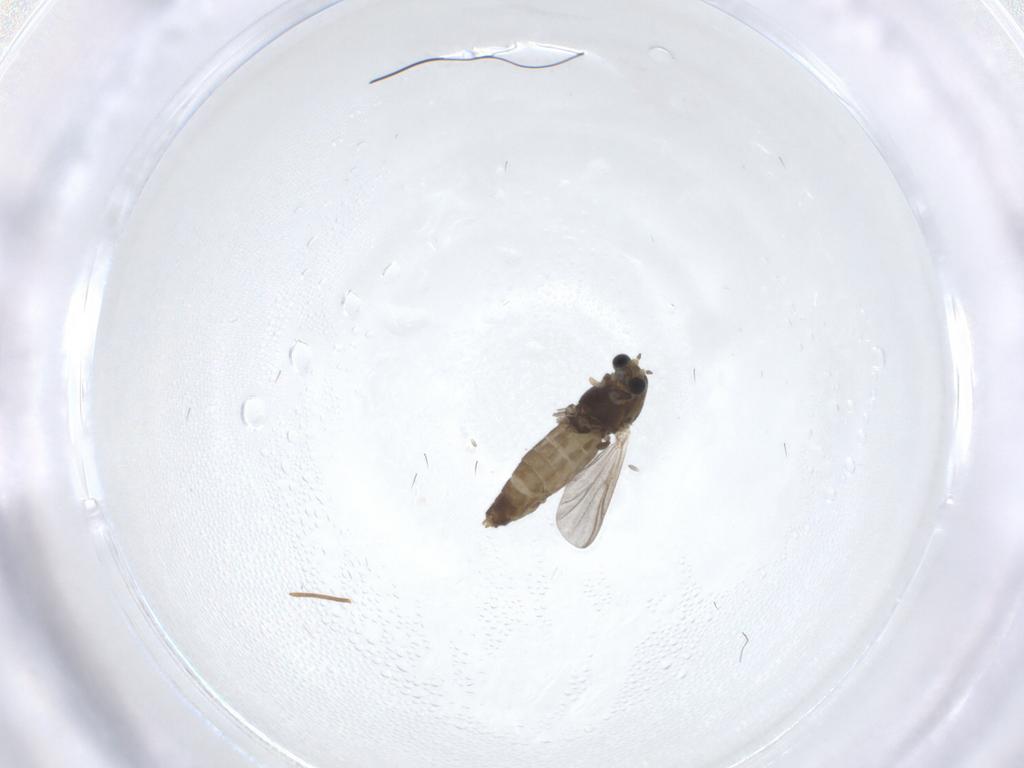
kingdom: Animalia
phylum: Arthropoda
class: Insecta
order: Diptera
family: Chironomidae
